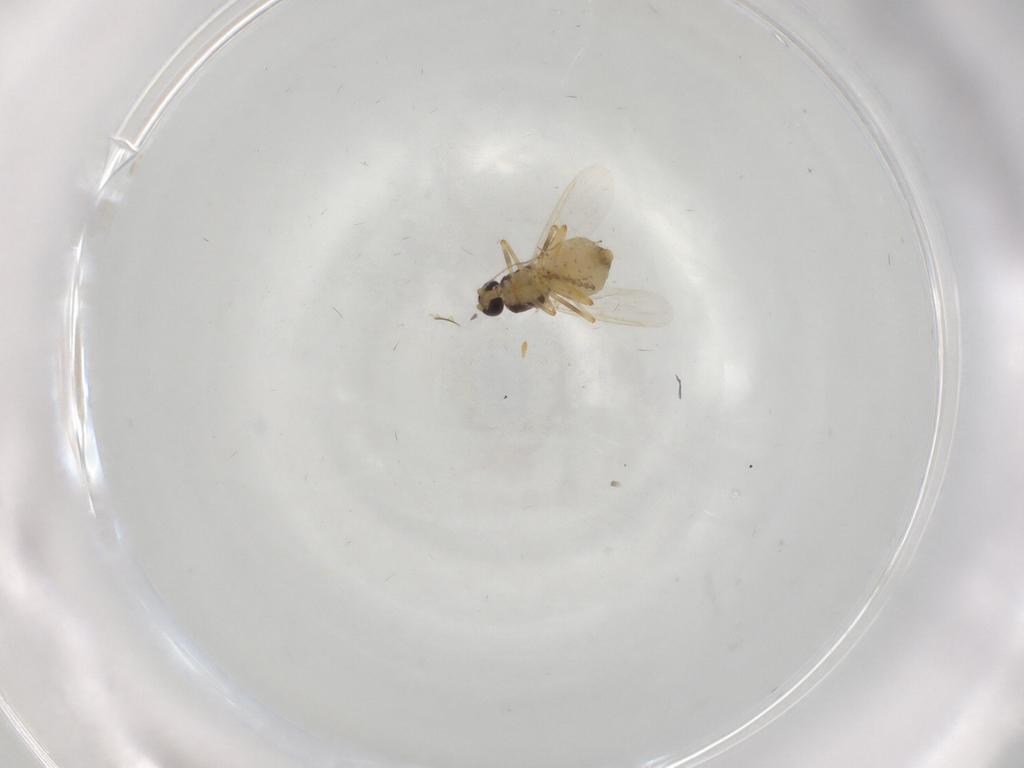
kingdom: Animalia
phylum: Arthropoda
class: Insecta
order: Diptera
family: Ceratopogonidae
